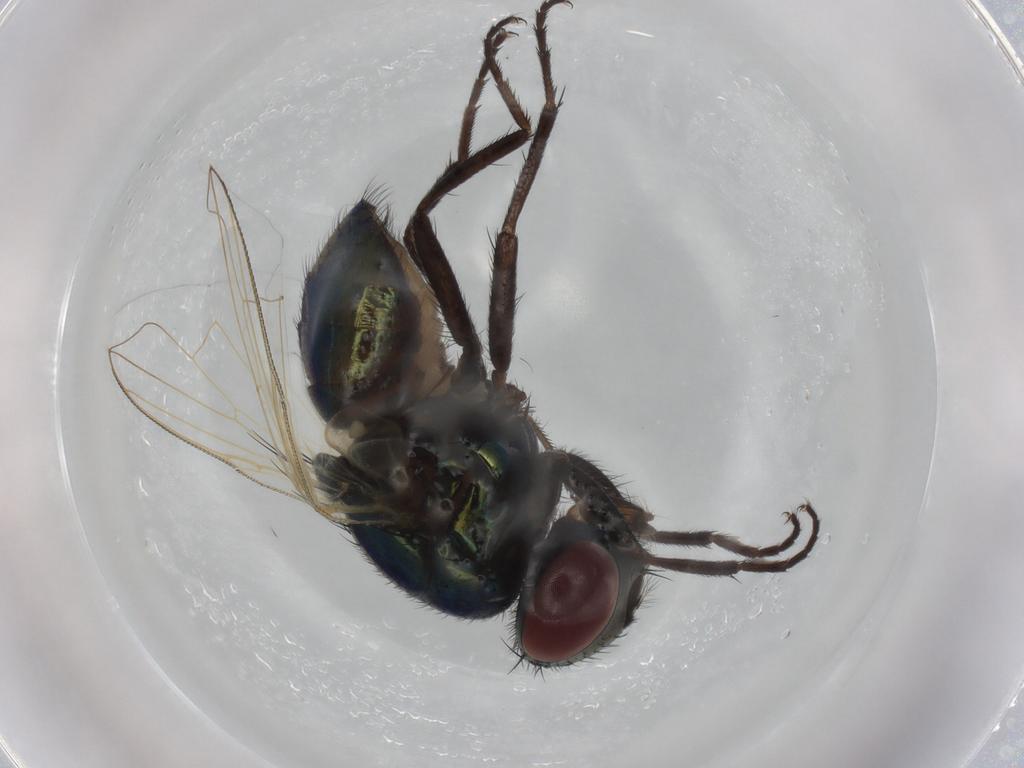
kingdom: Animalia
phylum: Arthropoda
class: Insecta
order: Diptera
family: Muscidae
